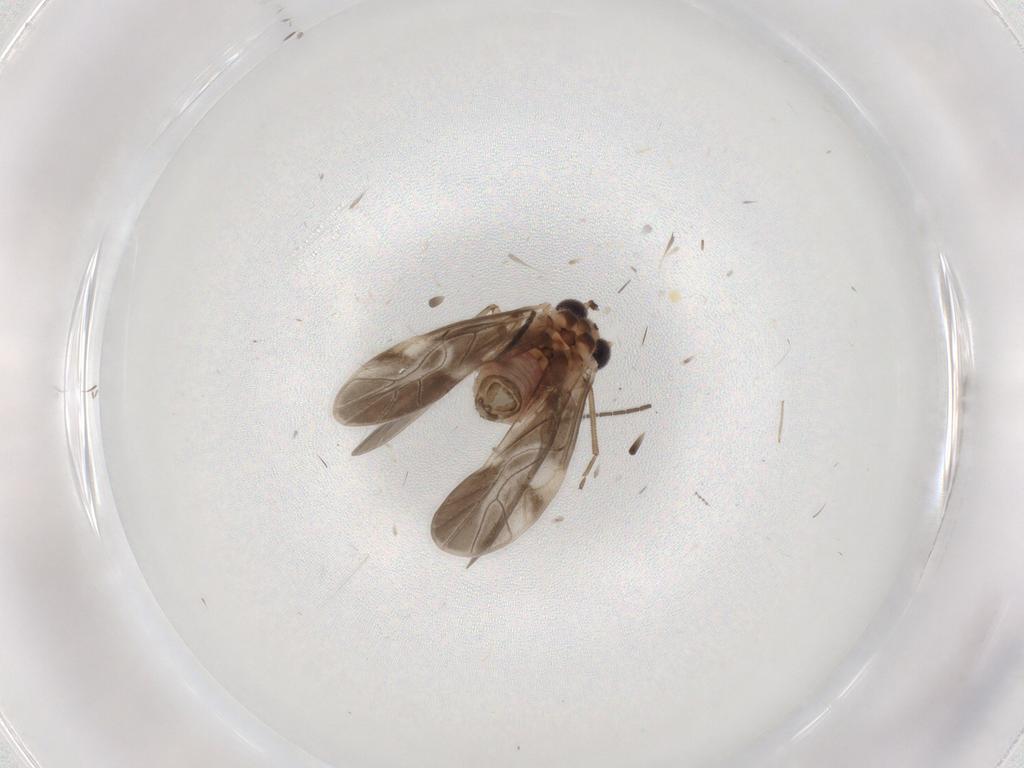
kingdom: Animalia
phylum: Arthropoda
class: Insecta
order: Psocodea
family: Caeciliusidae
